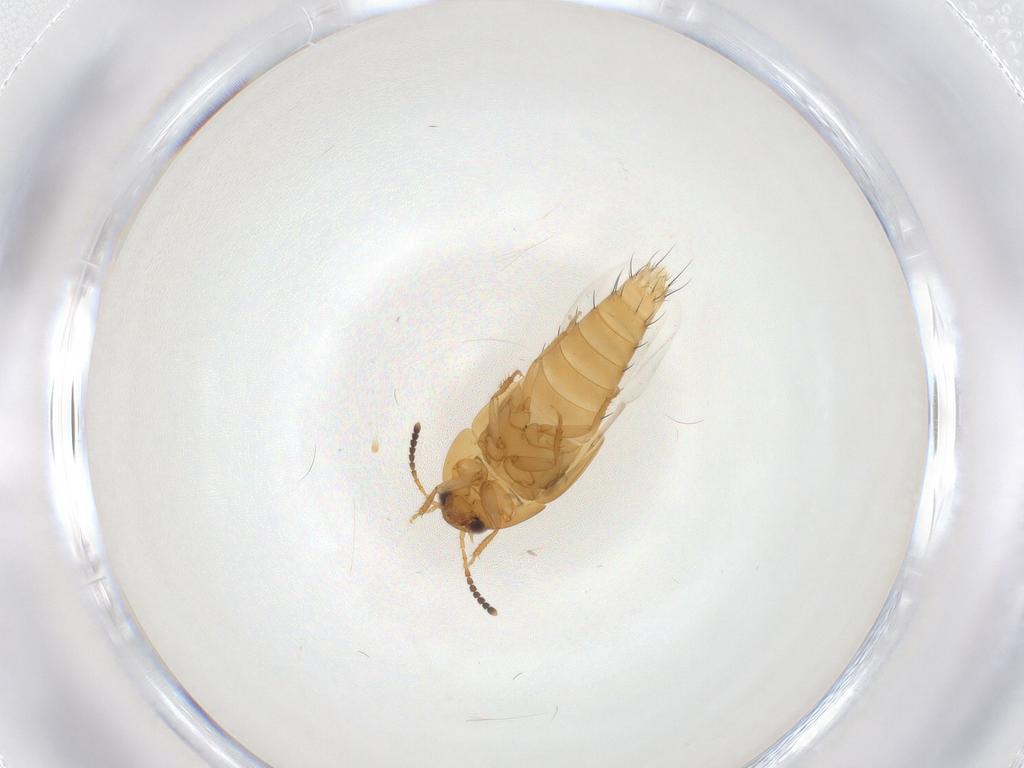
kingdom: Animalia
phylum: Arthropoda
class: Insecta
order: Coleoptera
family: Staphylinidae
